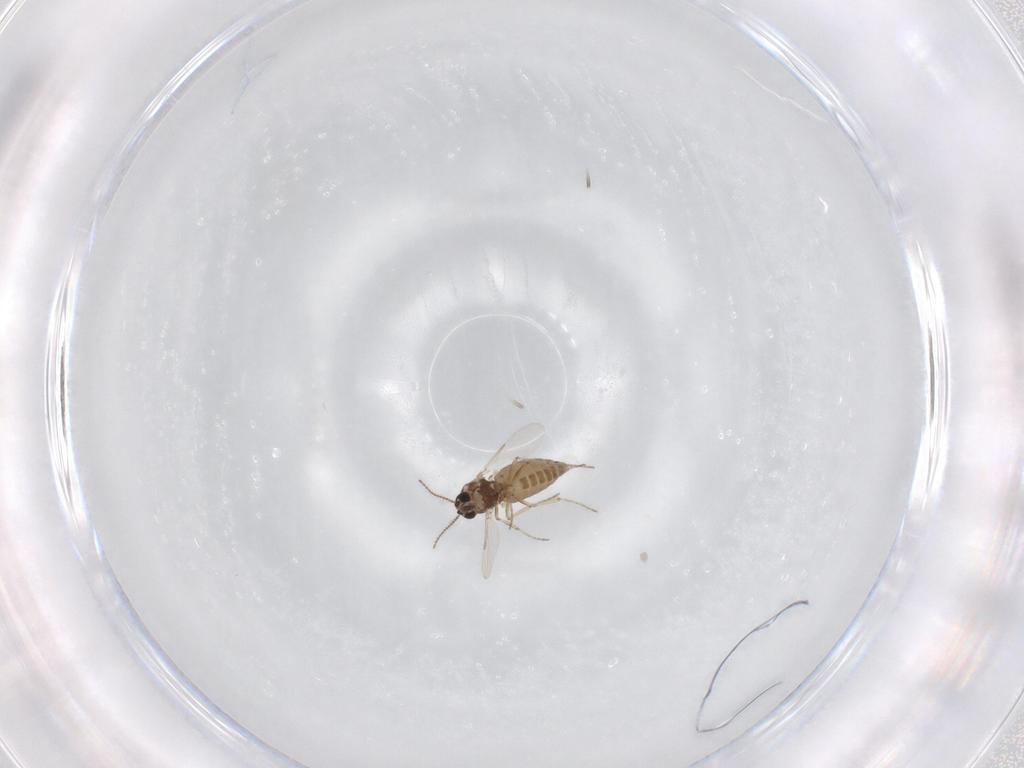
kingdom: Animalia
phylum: Arthropoda
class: Insecta
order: Diptera
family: Ceratopogonidae
